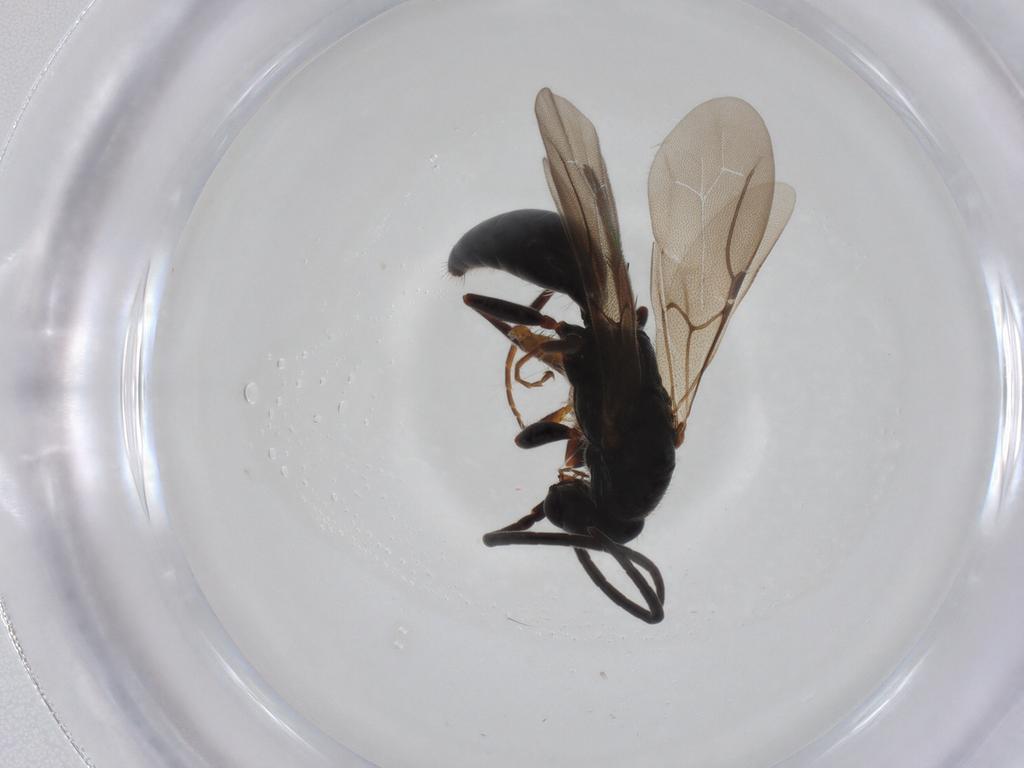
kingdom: Animalia
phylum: Arthropoda
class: Insecta
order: Hymenoptera
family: Bethylidae
